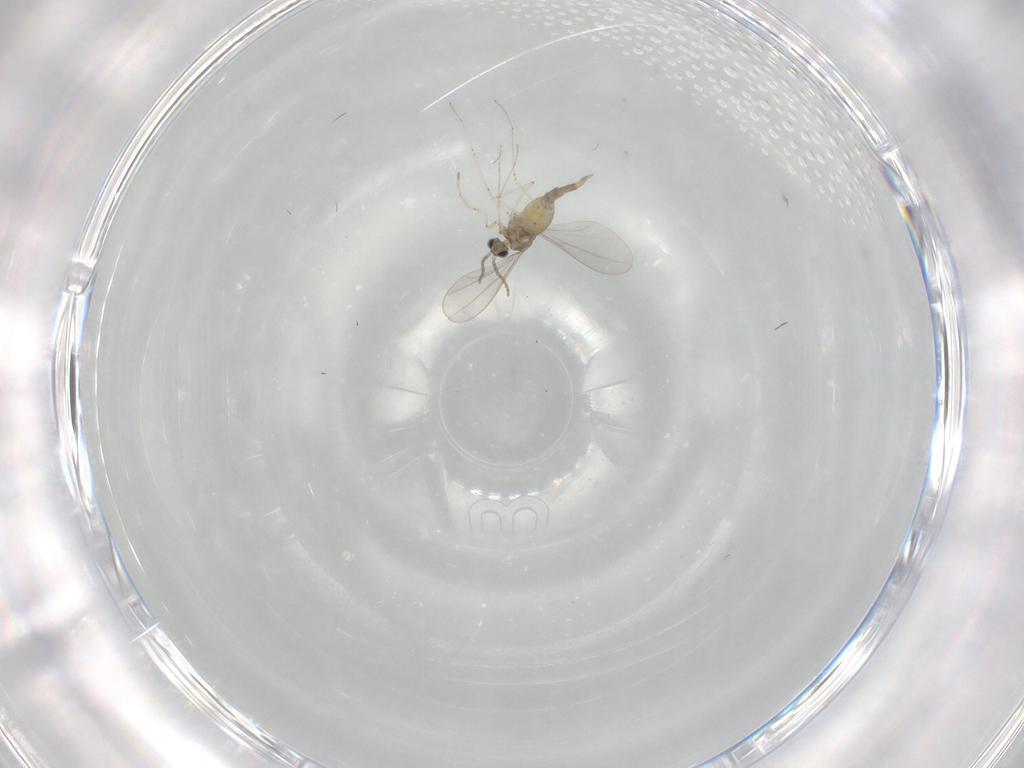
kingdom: Animalia
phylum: Arthropoda
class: Insecta
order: Diptera
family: Cecidomyiidae
